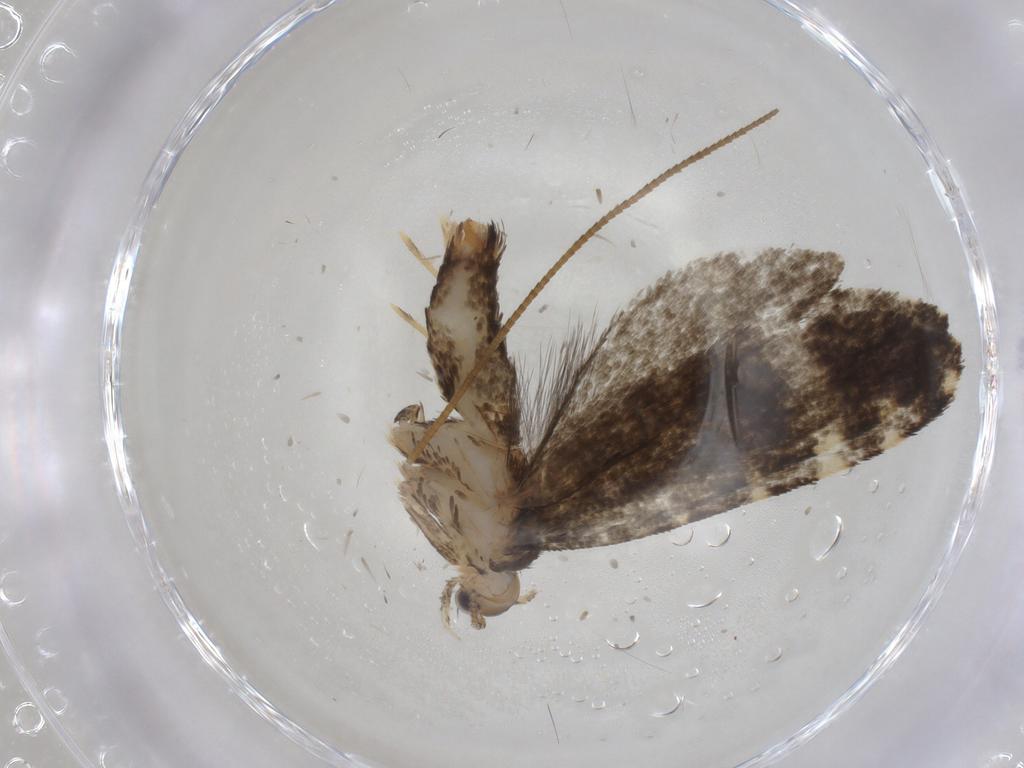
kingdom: Animalia
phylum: Arthropoda
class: Insecta
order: Lepidoptera
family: Tineidae
